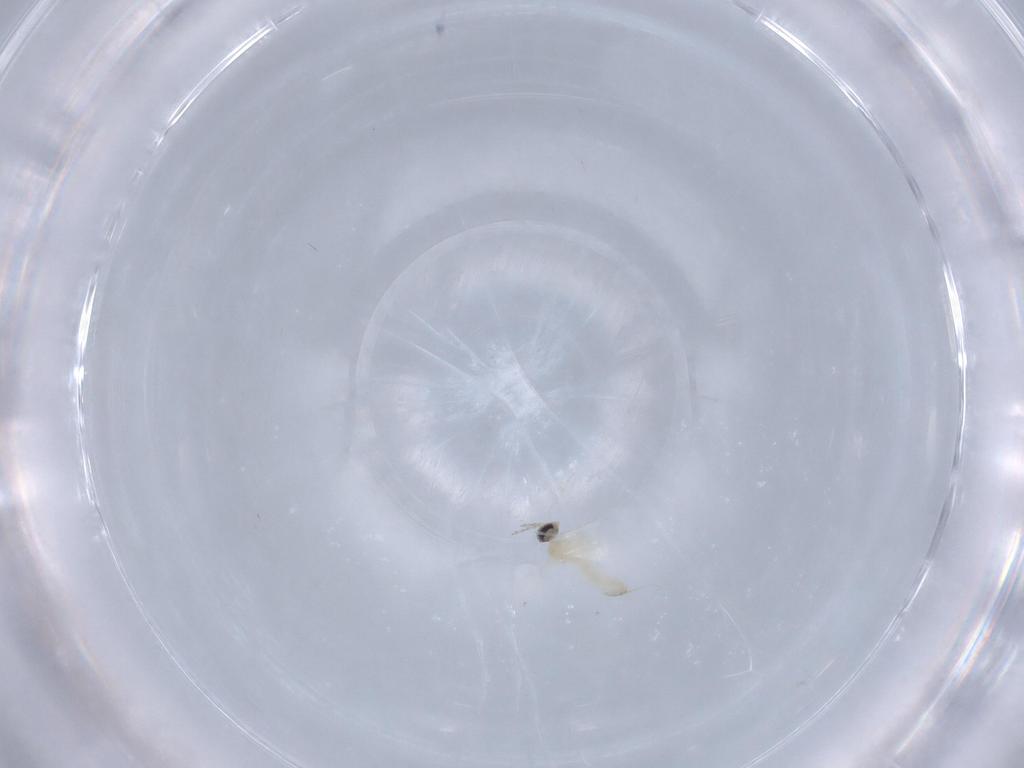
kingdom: Animalia
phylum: Arthropoda
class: Insecta
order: Diptera
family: Cecidomyiidae
